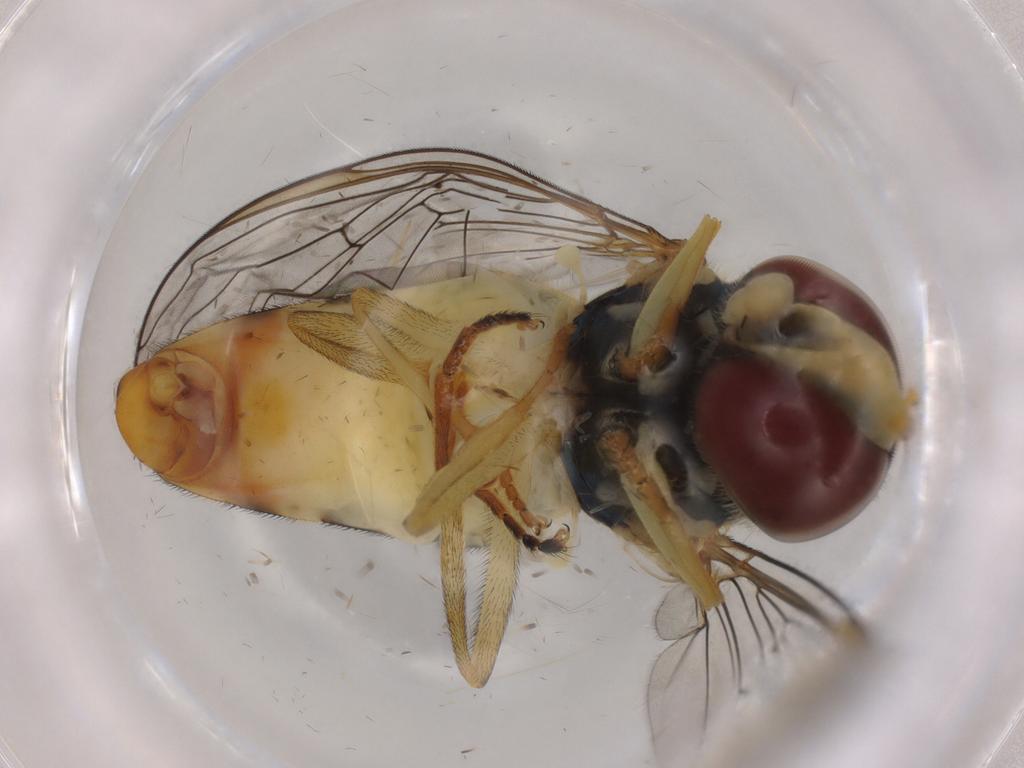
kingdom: Animalia
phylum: Arthropoda
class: Insecta
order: Diptera
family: Syrphidae
